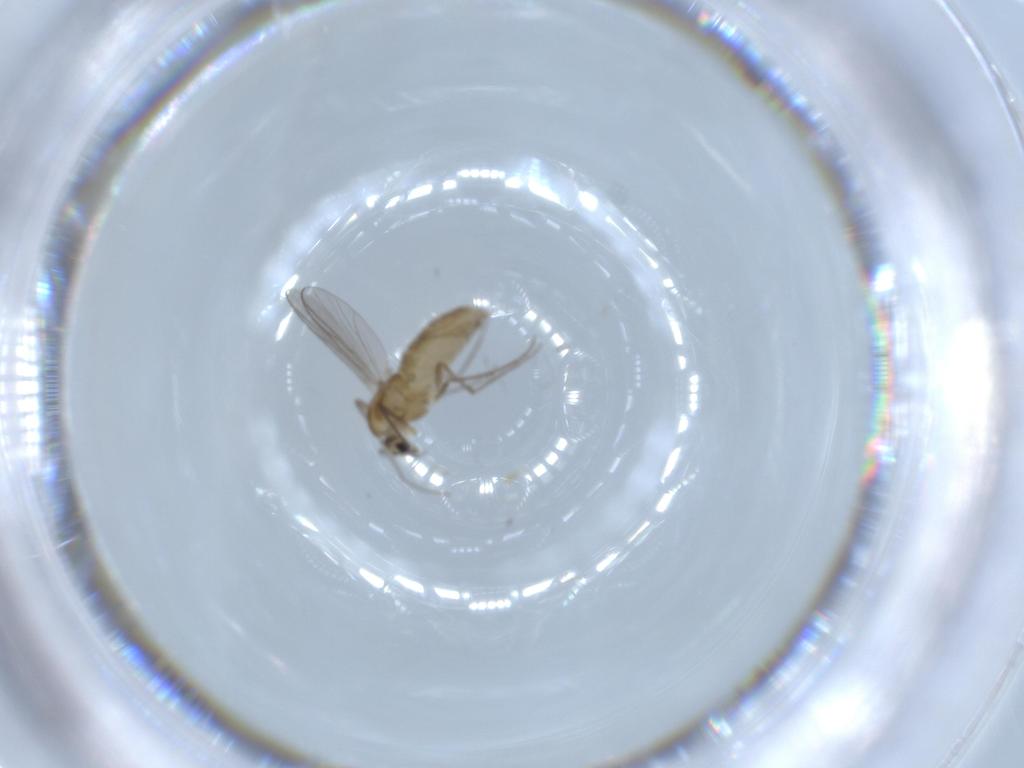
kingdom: Animalia
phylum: Arthropoda
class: Insecta
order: Diptera
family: Chironomidae
